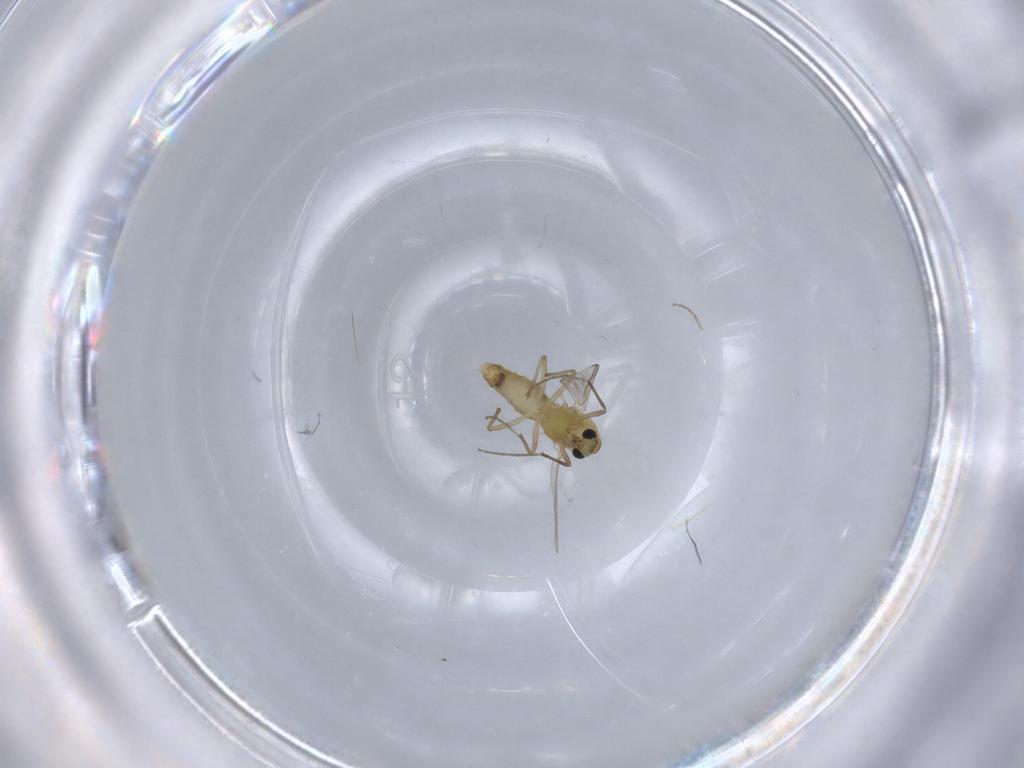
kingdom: Animalia
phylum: Arthropoda
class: Insecta
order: Diptera
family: Chironomidae
